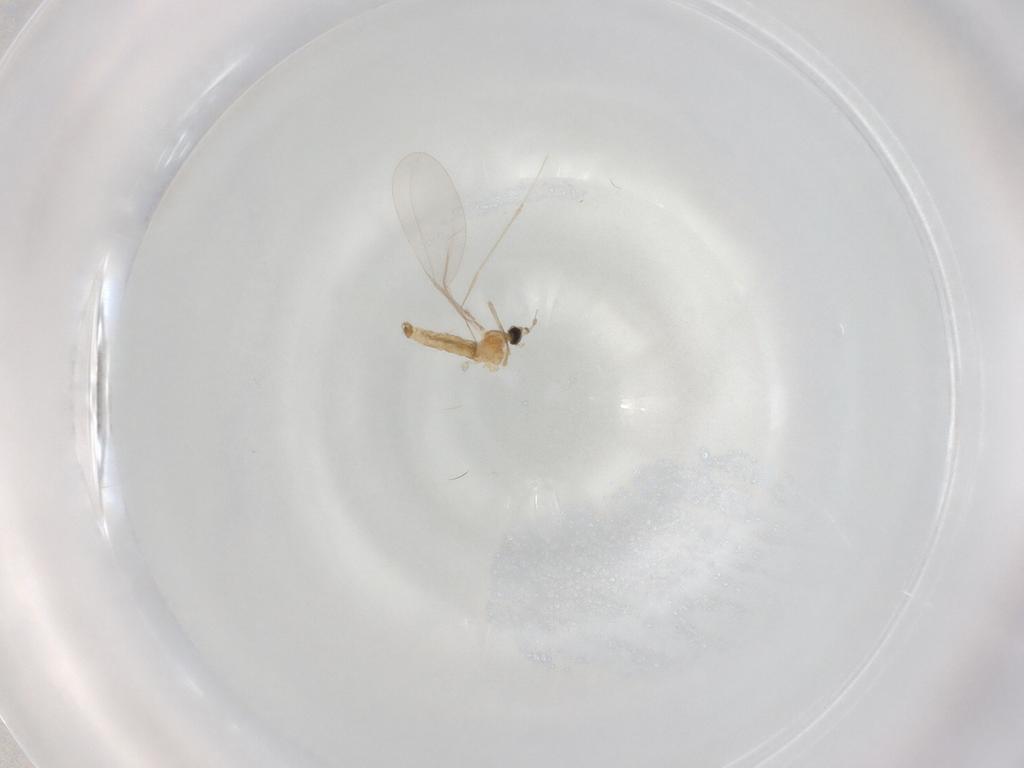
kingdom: Animalia
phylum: Arthropoda
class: Insecta
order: Diptera
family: Cecidomyiidae
